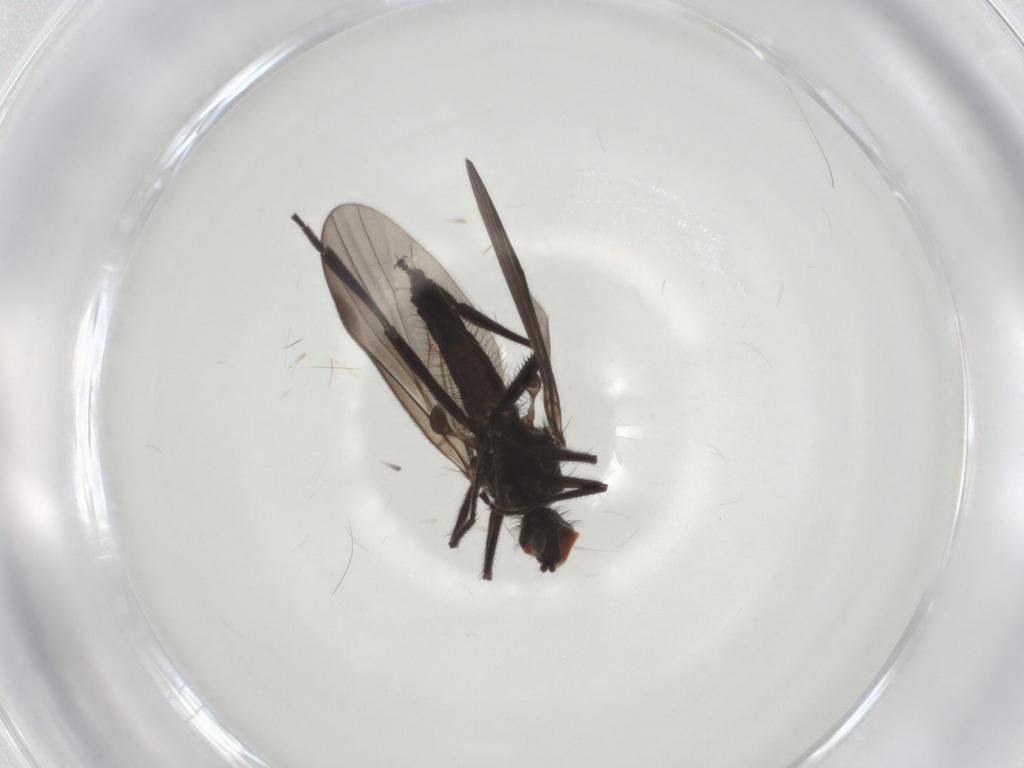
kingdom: Animalia
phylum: Arthropoda
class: Insecta
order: Diptera
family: Hybotidae
